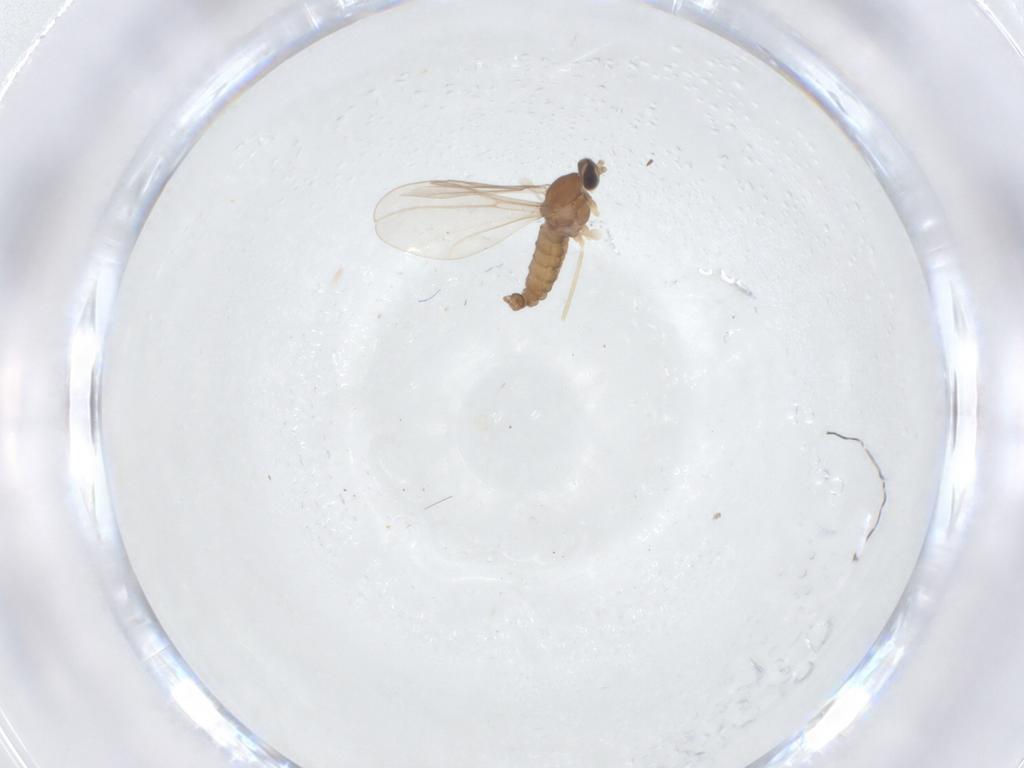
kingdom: Animalia
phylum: Arthropoda
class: Insecta
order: Diptera
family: Cecidomyiidae
